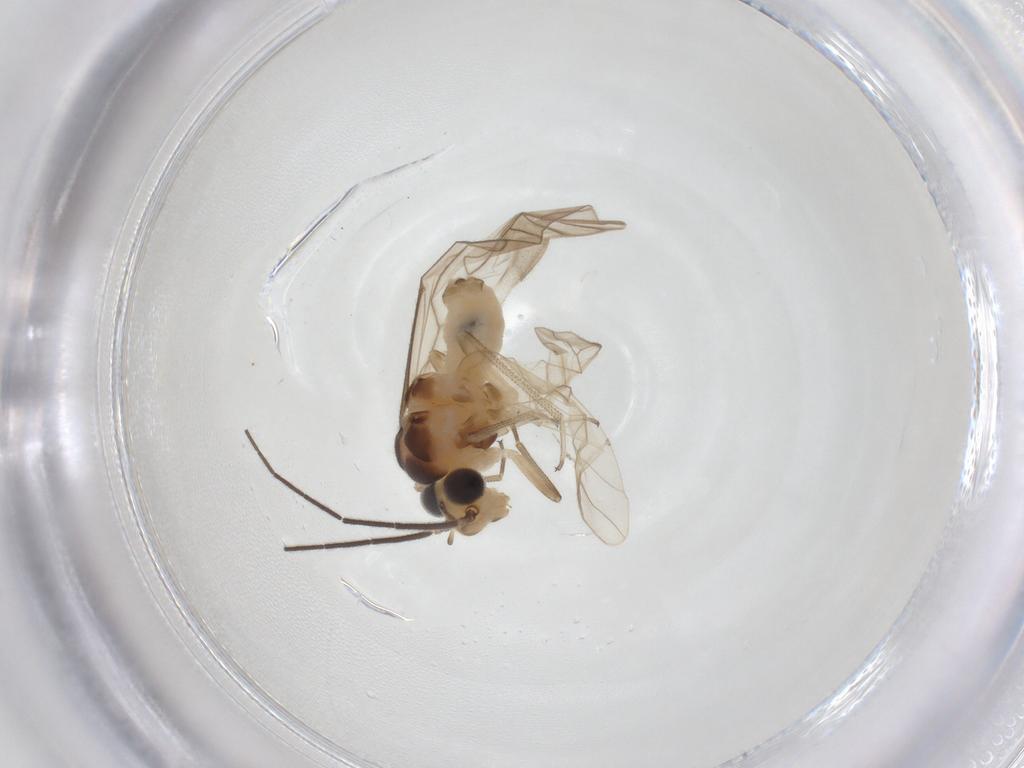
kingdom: Animalia
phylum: Arthropoda
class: Insecta
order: Psocodea
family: Caeciliusidae
